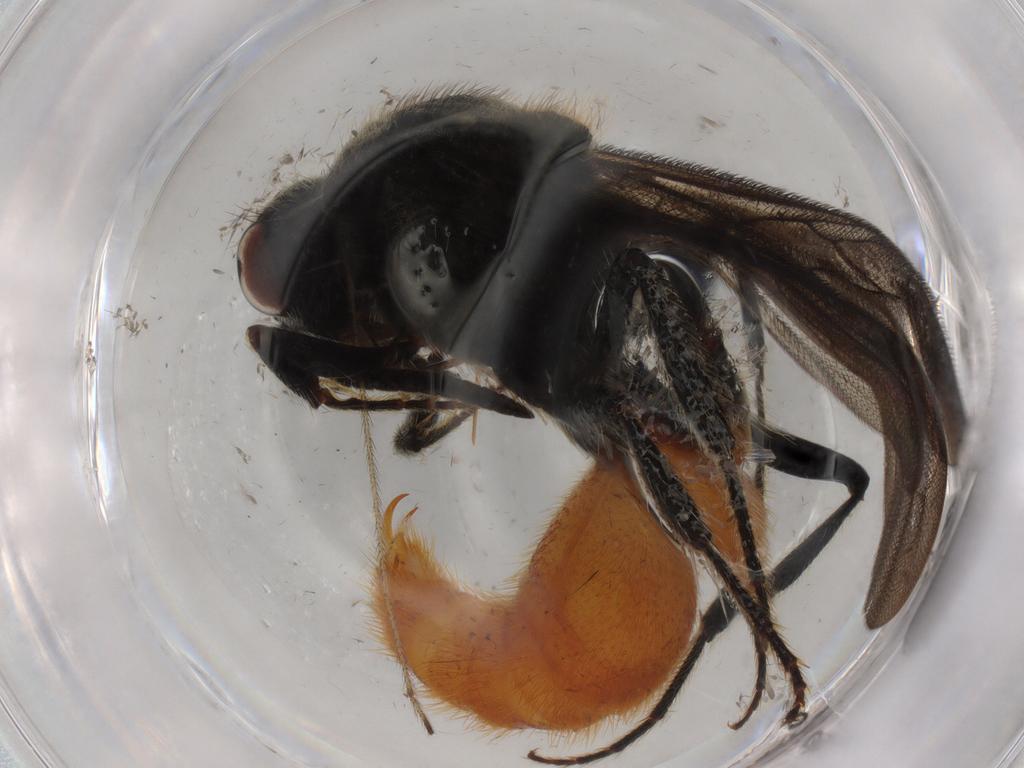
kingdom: Animalia
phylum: Arthropoda
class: Insecta
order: Hymenoptera
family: Mutillidae
